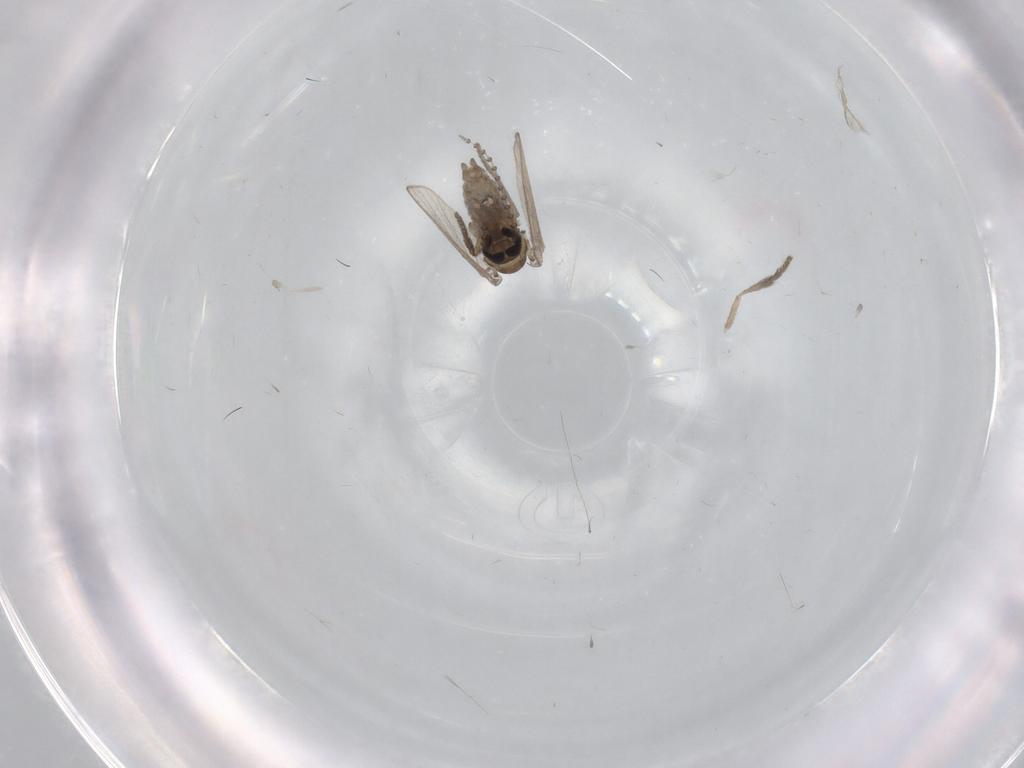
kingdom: Animalia
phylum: Arthropoda
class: Insecta
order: Diptera
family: Psychodidae
